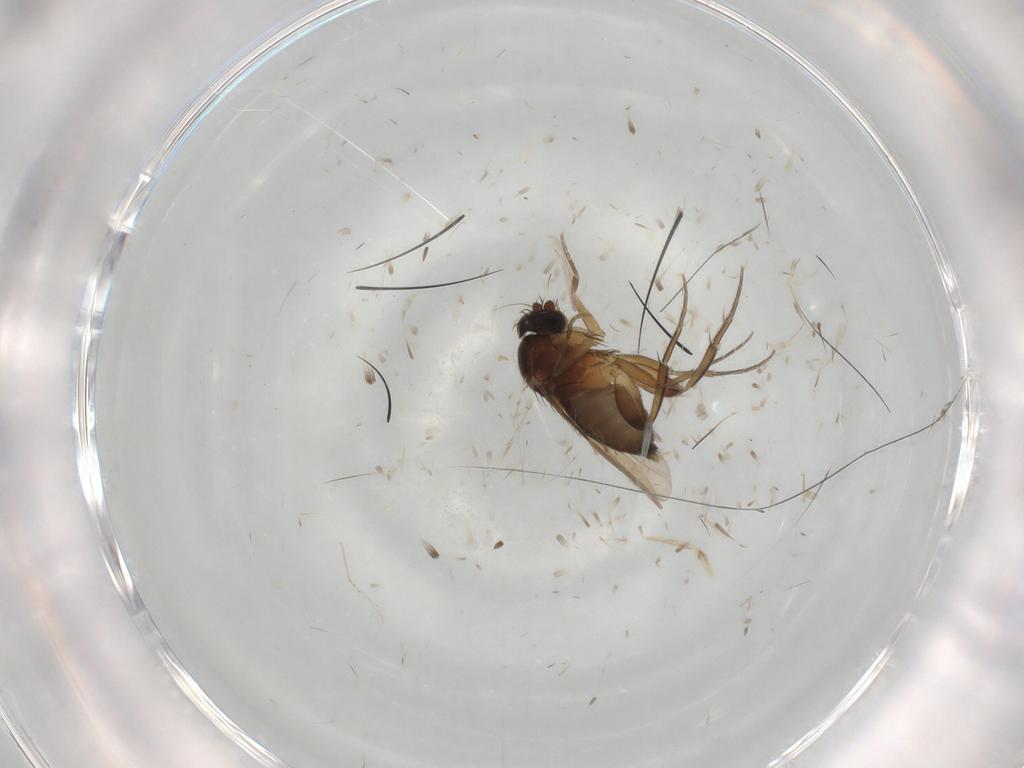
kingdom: Animalia
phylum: Arthropoda
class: Insecta
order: Diptera
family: Phoridae
